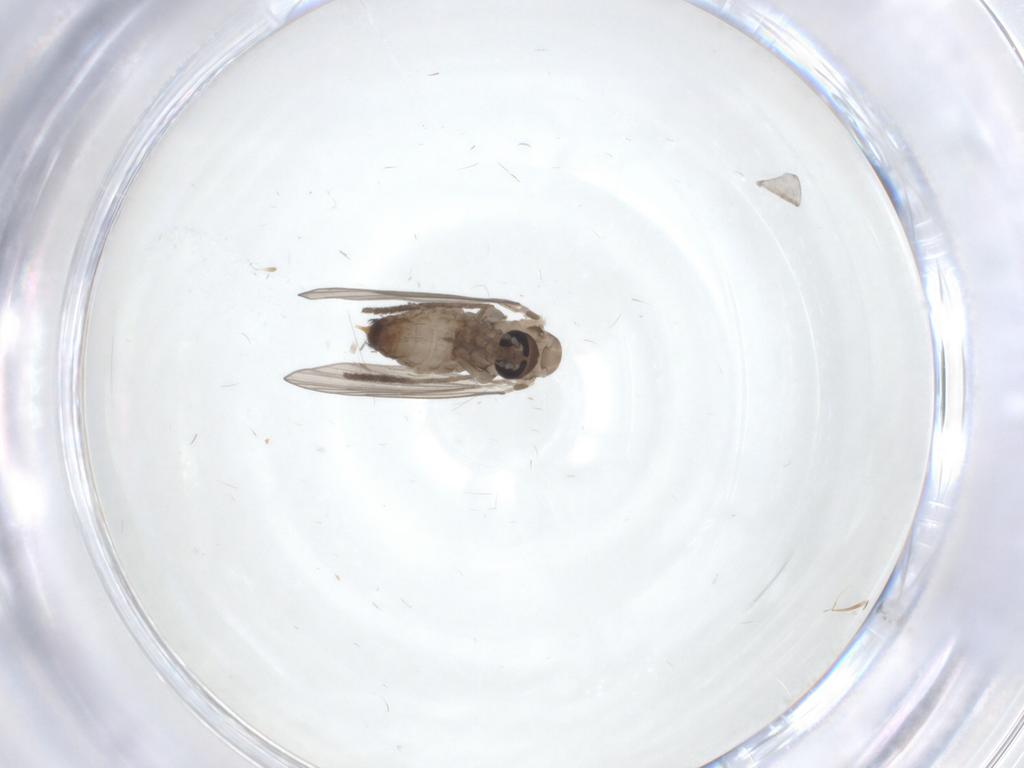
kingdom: Animalia
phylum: Arthropoda
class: Insecta
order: Diptera
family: Psychodidae
